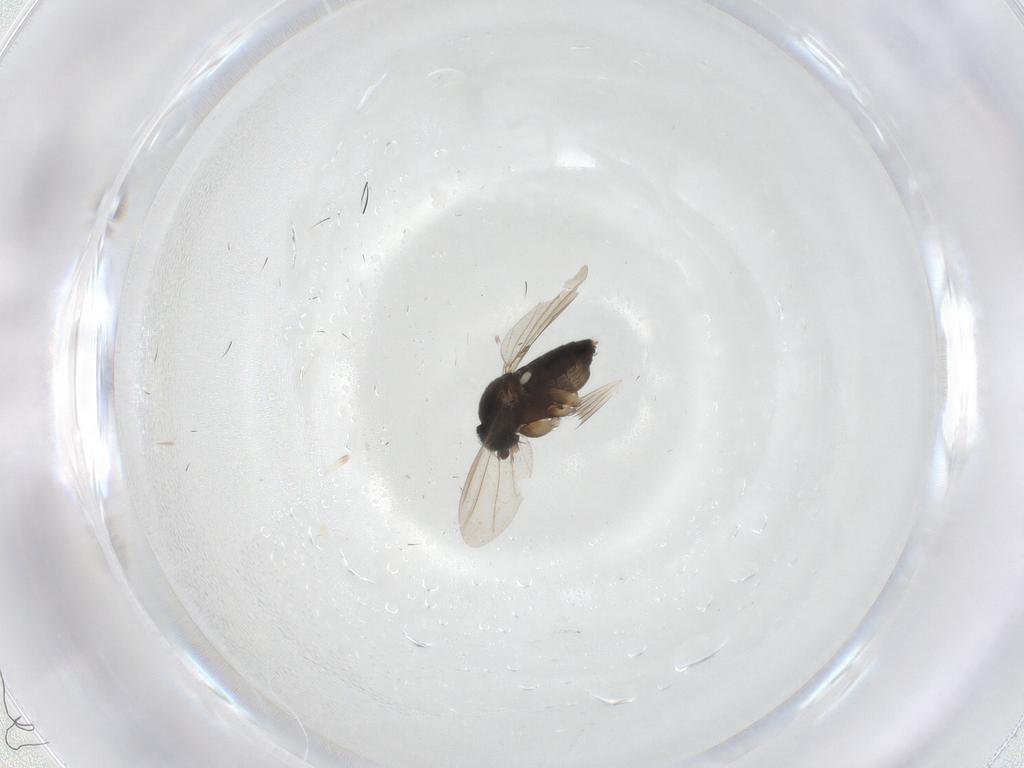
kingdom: Animalia
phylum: Arthropoda
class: Insecta
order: Diptera
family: Phoridae
